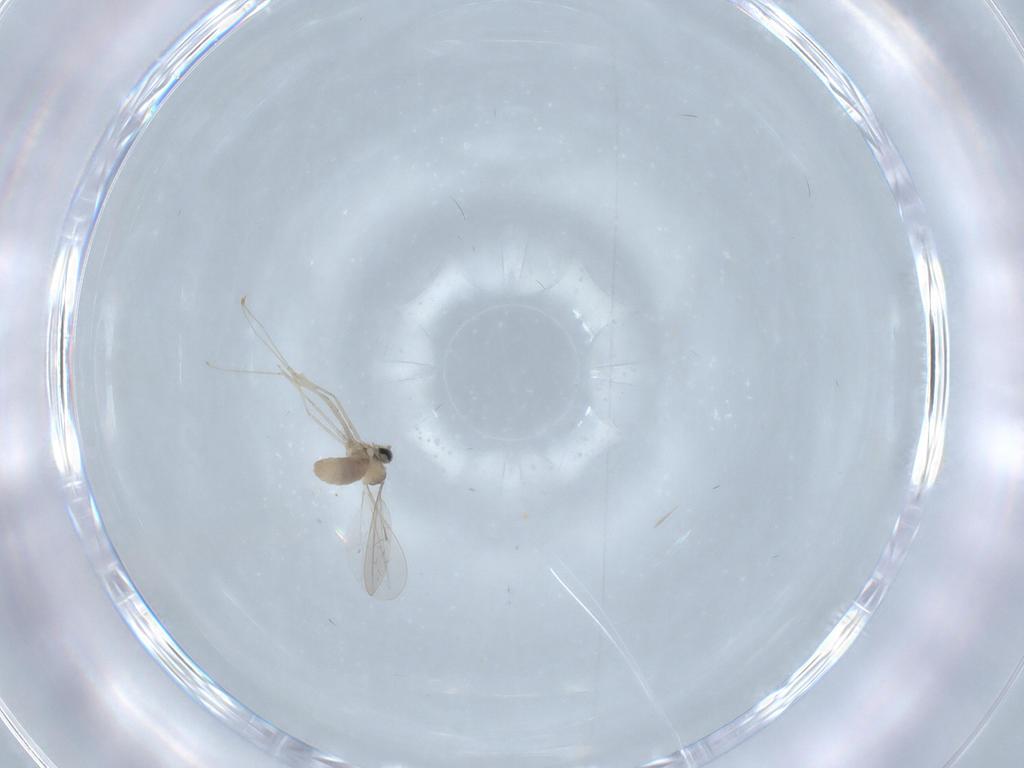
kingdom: Animalia
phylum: Arthropoda
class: Insecta
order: Diptera
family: Cecidomyiidae
